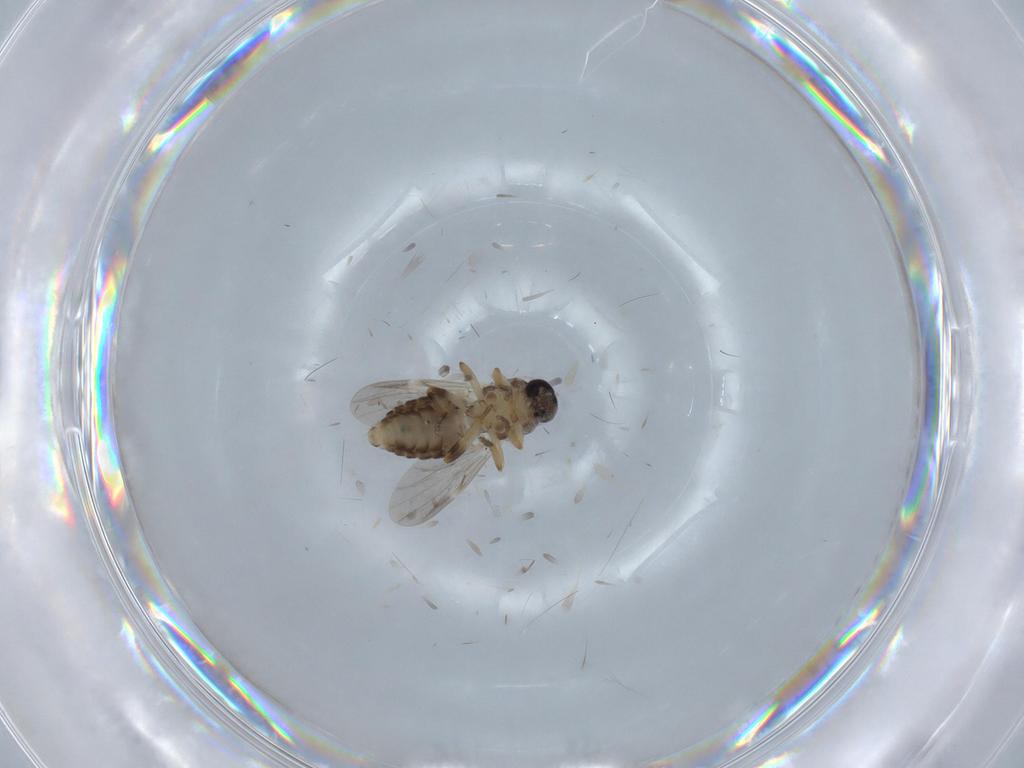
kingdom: Animalia
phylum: Arthropoda
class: Insecta
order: Diptera
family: Ceratopogonidae
